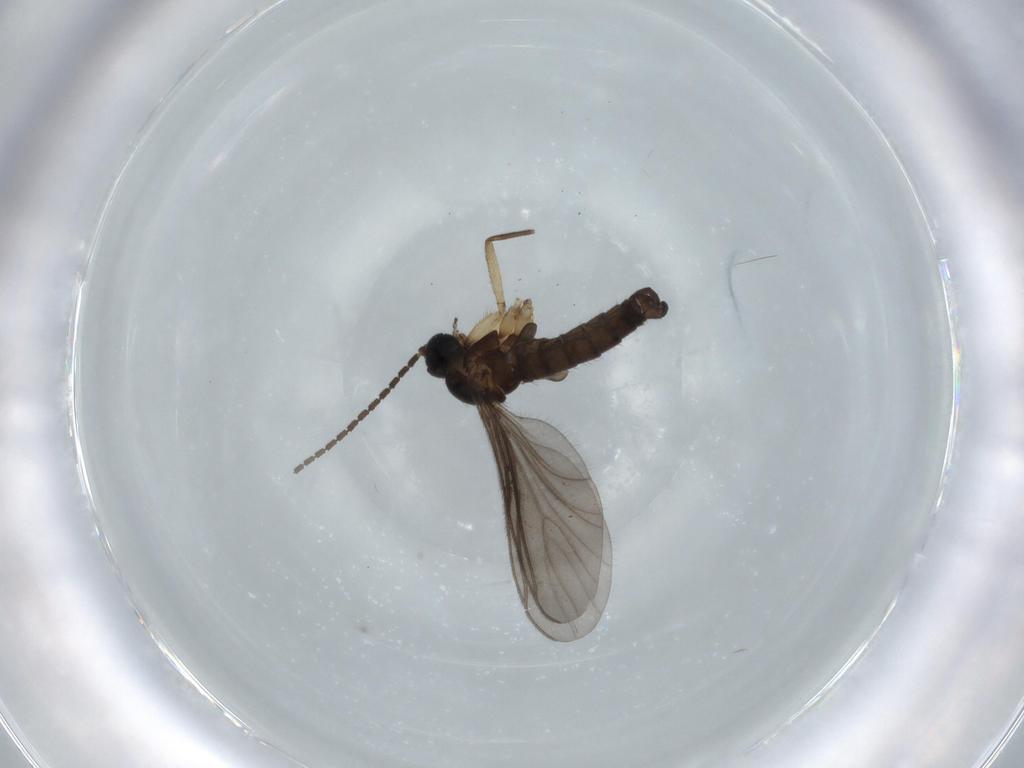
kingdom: Animalia
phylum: Arthropoda
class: Insecta
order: Diptera
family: Sciaridae
